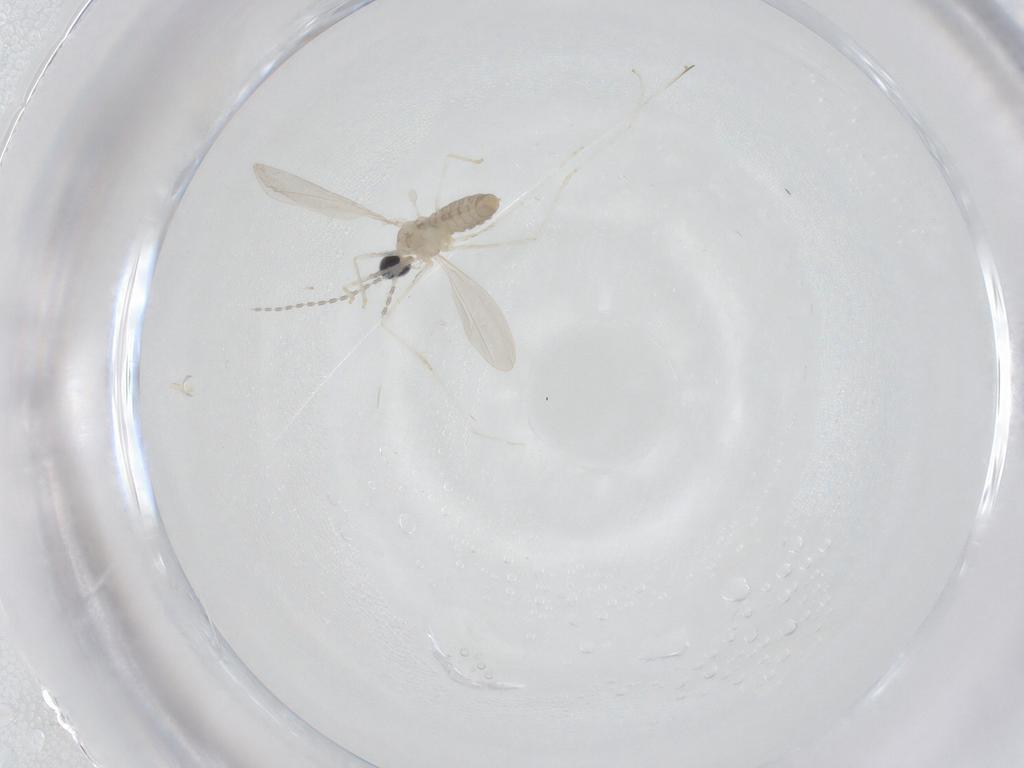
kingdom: Animalia
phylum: Arthropoda
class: Insecta
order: Diptera
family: Cecidomyiidae
